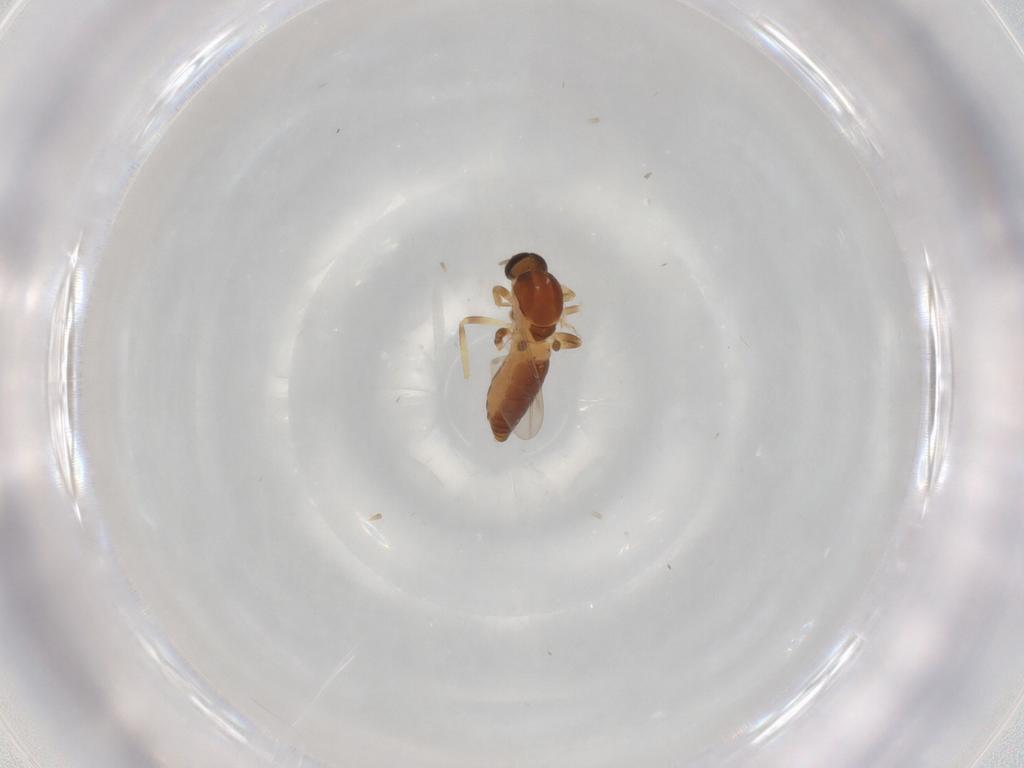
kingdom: Animalia
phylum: Arthropoda
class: Insecta
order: Diptera
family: Ceratopogonidae
